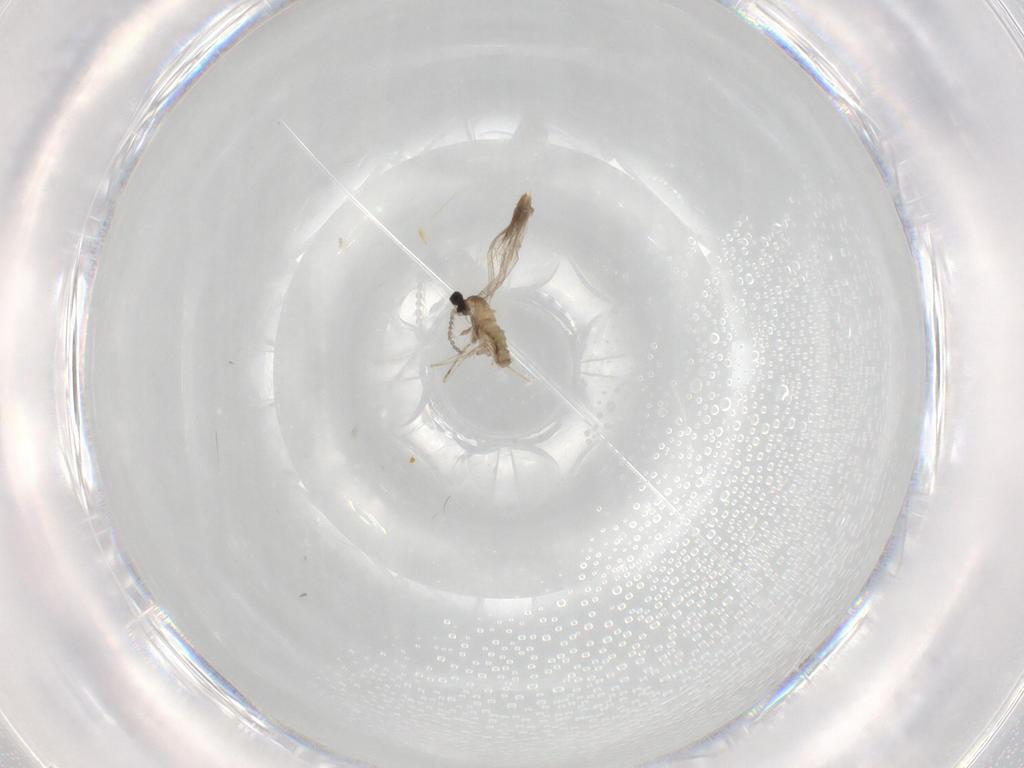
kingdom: Animalia
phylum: Arthropoda
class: Insecta
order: Diptera
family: Cecidomyiidae
